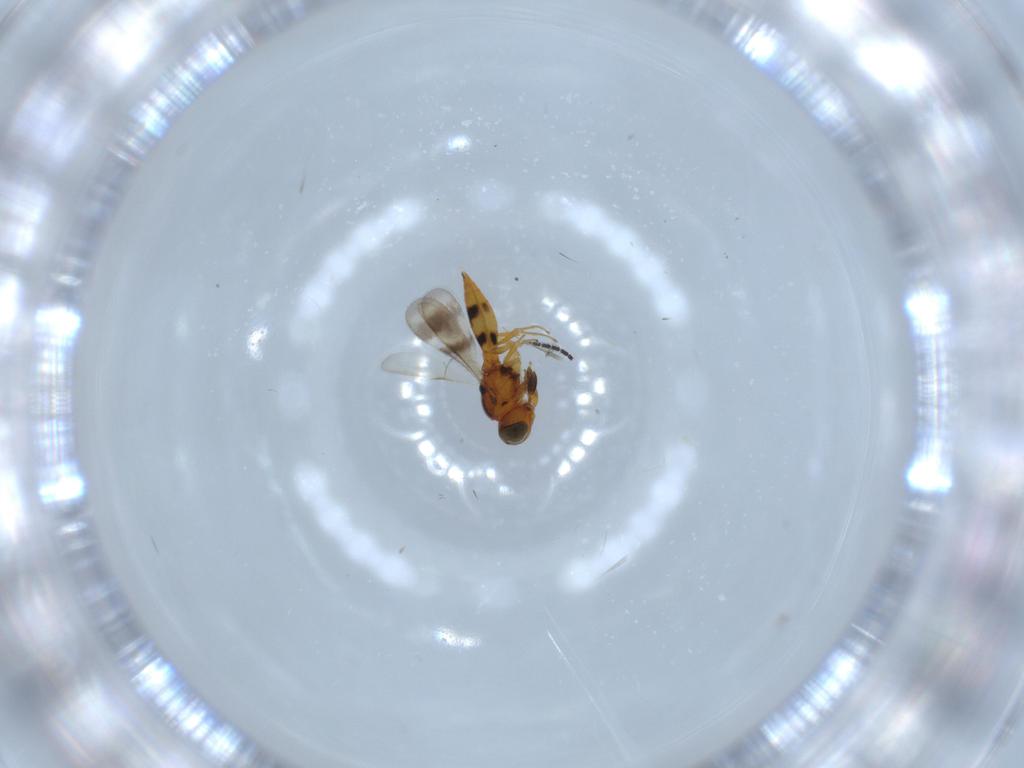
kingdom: Animalia
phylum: Arthropoda
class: Insecta
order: Hymenoptera
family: Scelionidae
